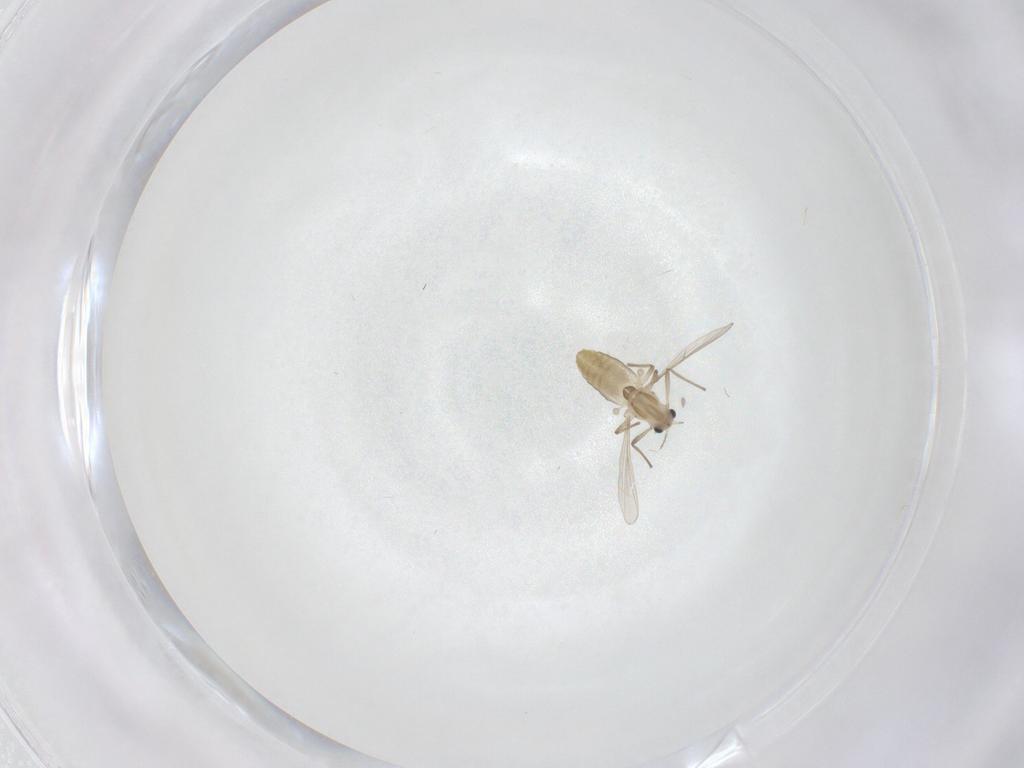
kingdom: Animalia
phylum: Arthropoda
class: Insecta
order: Diptera
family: Chironomidae
